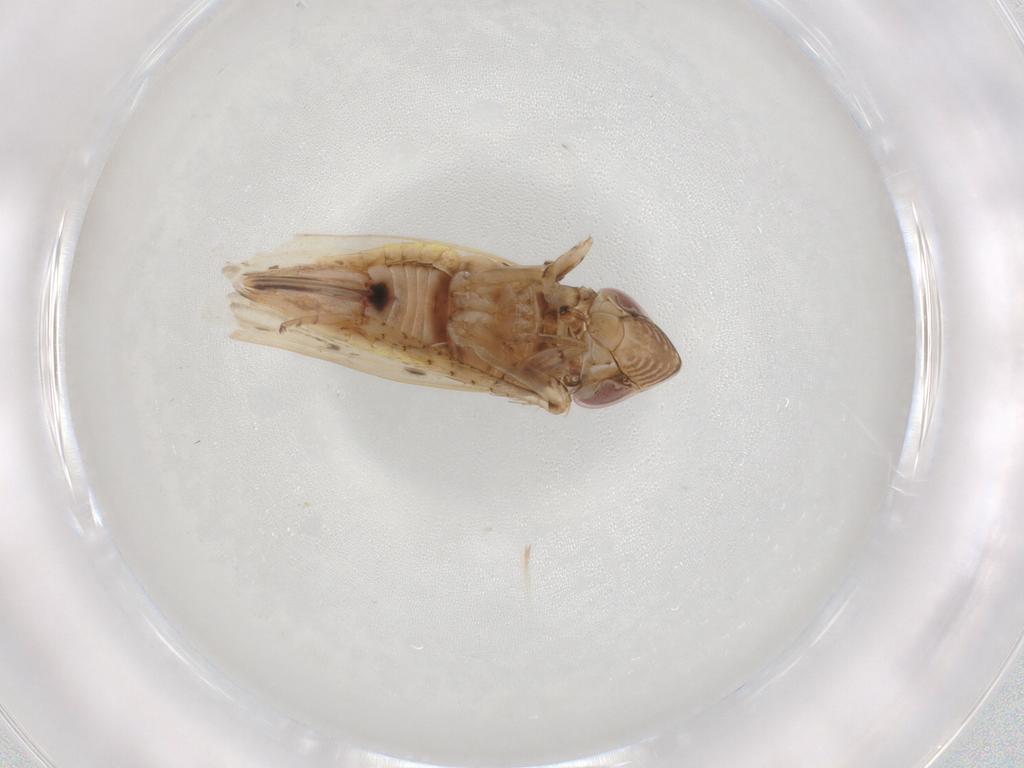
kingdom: Animalia
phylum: Arthropoda
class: Insecta
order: Hemiptera
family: Cicadellidae
